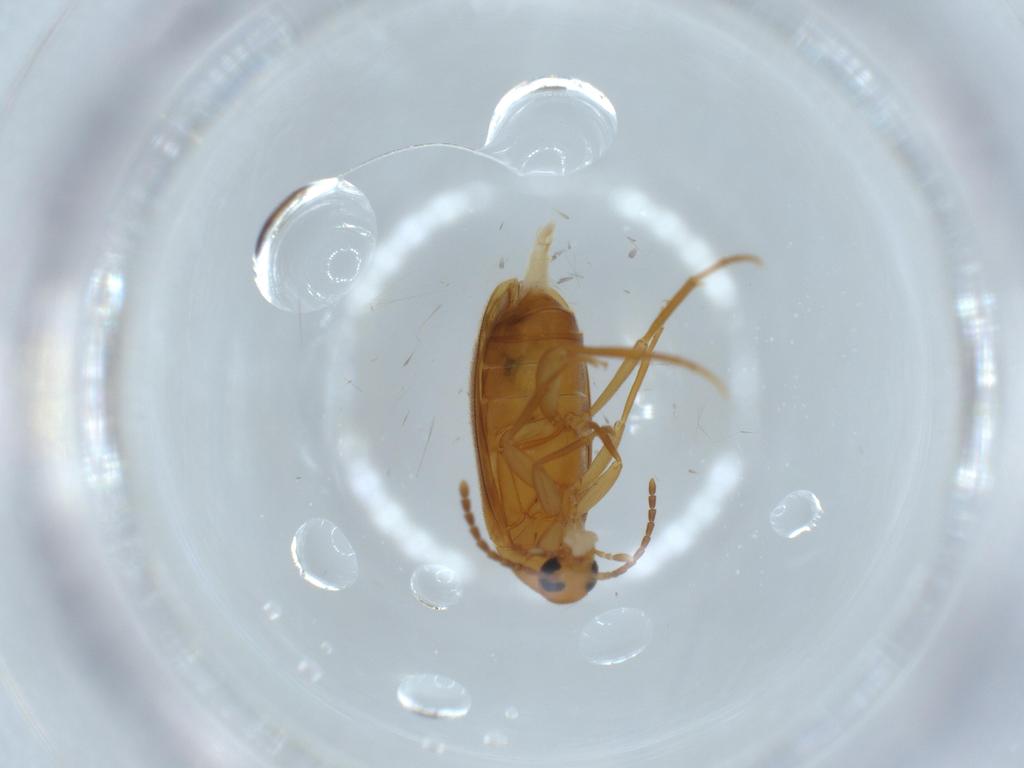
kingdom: Animalia
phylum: Arthropoda
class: Insecta
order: Coleoptera
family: Scraptiidae
